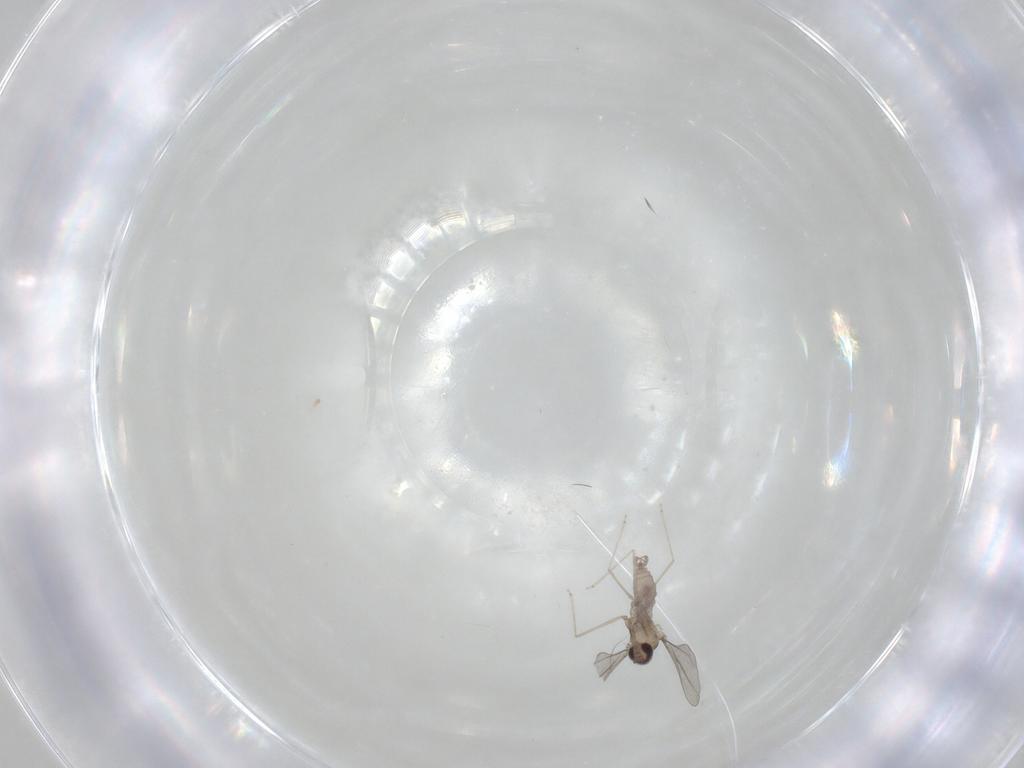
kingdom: Animalia
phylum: Arthropoda
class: Insecta
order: Diptera
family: Cecidomyiidae
